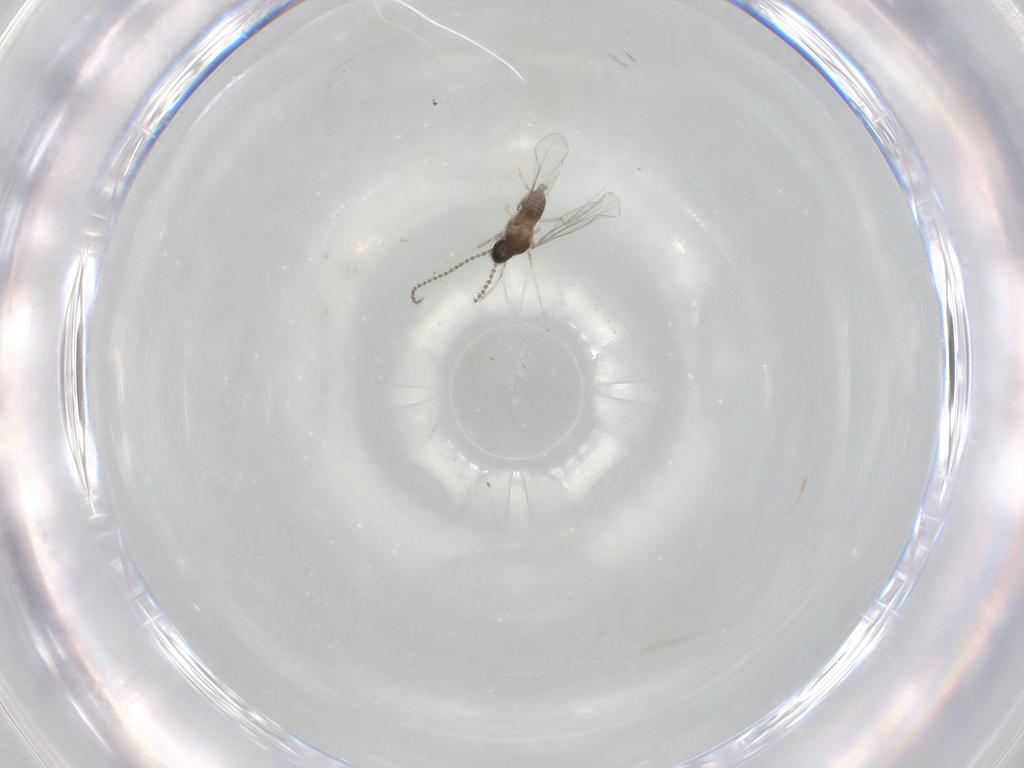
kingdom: Animalia
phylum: Arthropoda
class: Insecta
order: Diptera
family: Cecidomyiidae
